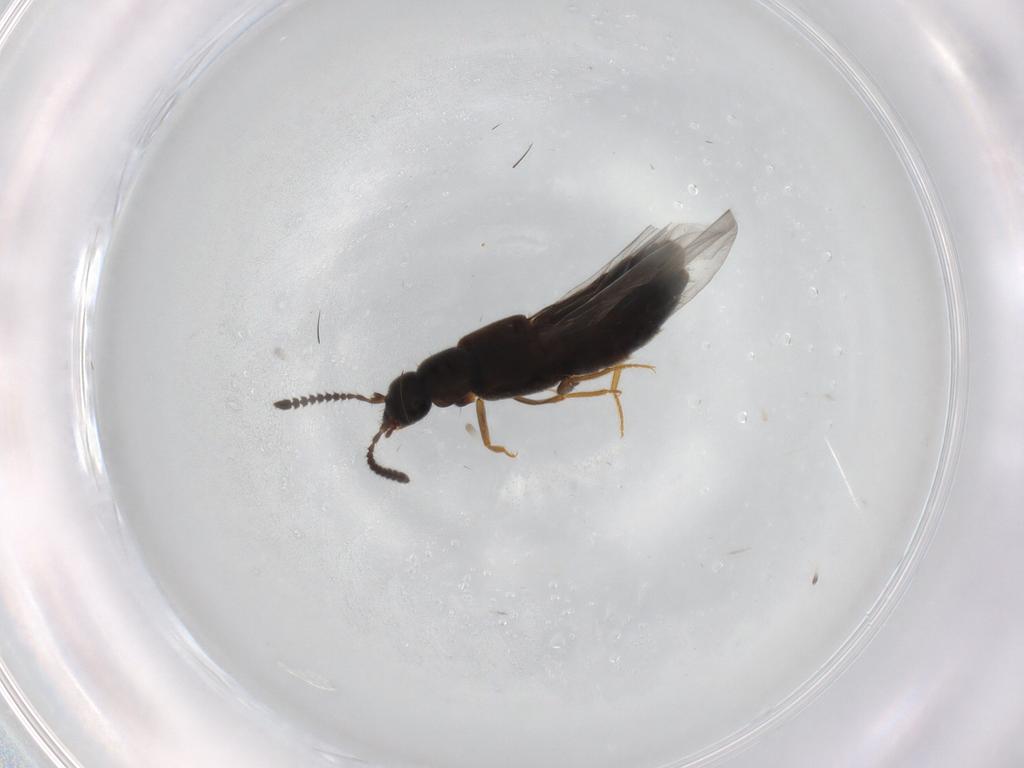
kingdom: Animalia
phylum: Arthropoda
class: Insecta
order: Coleoptera
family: Staphylinidae
